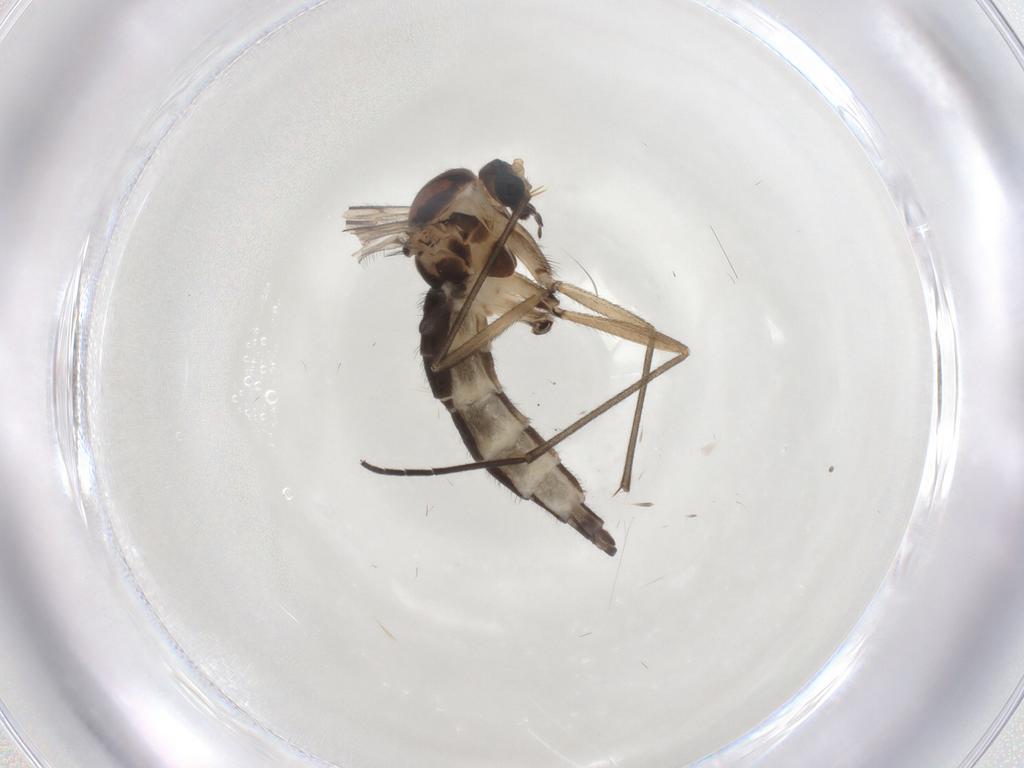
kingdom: Animalia
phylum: Arthropoda
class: Insecta
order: Diptera
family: Sciaridae
